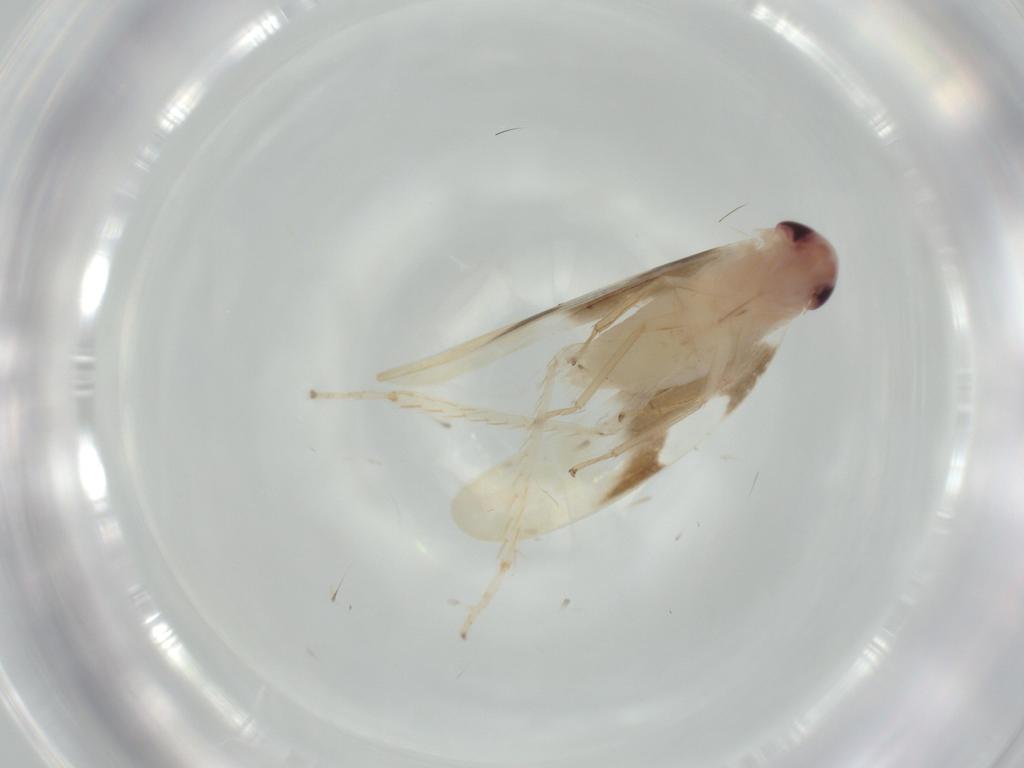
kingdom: Animalia
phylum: Arthropoda
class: Insecta
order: Hemiptera
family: Cicadellidae
